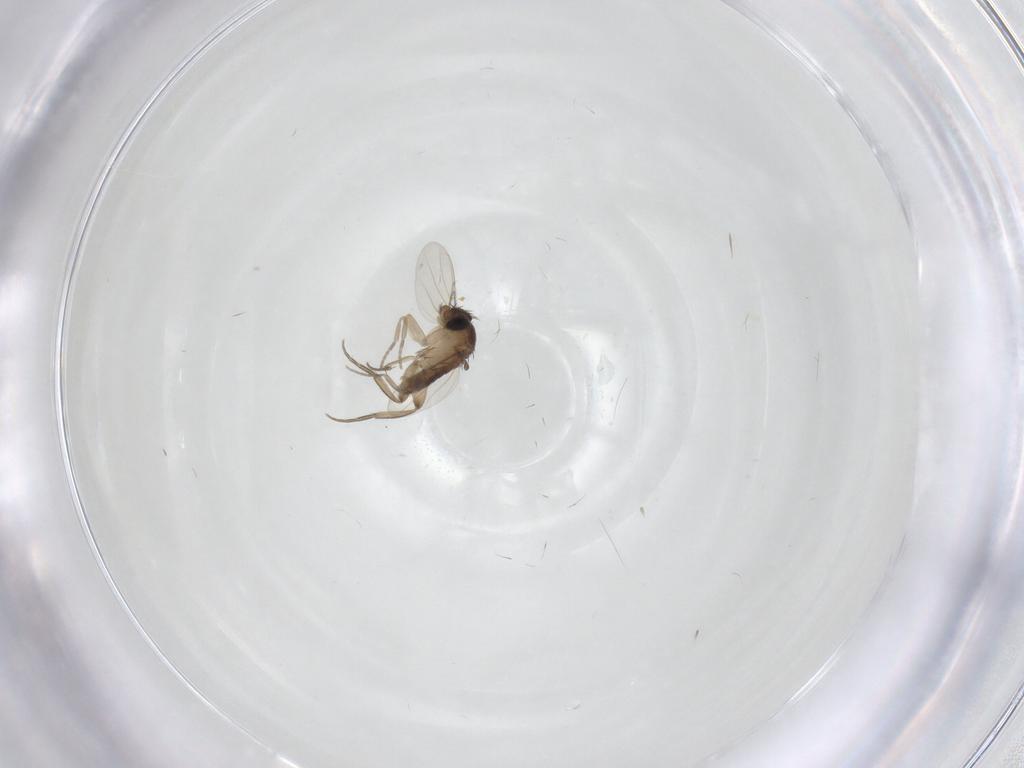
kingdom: Animalia
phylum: Arthropoda
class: Insecta
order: Diptera
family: Phoridae
